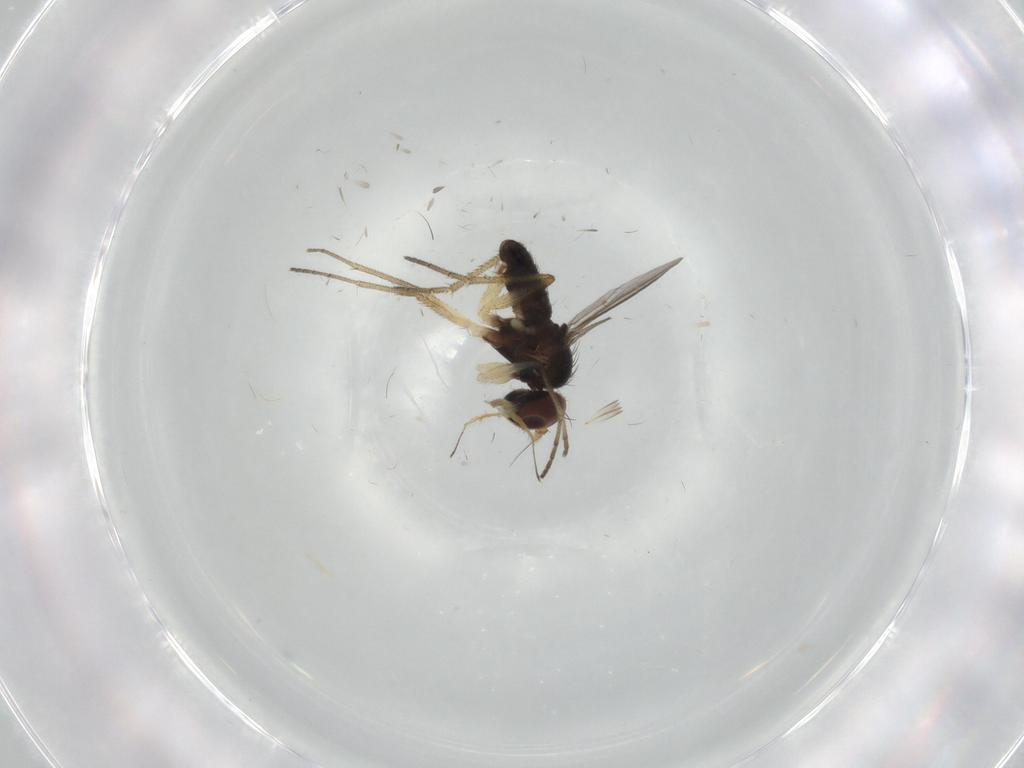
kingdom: Animalia
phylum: Arthropoda
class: Insecta
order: Diptera
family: Dolichopodidae
